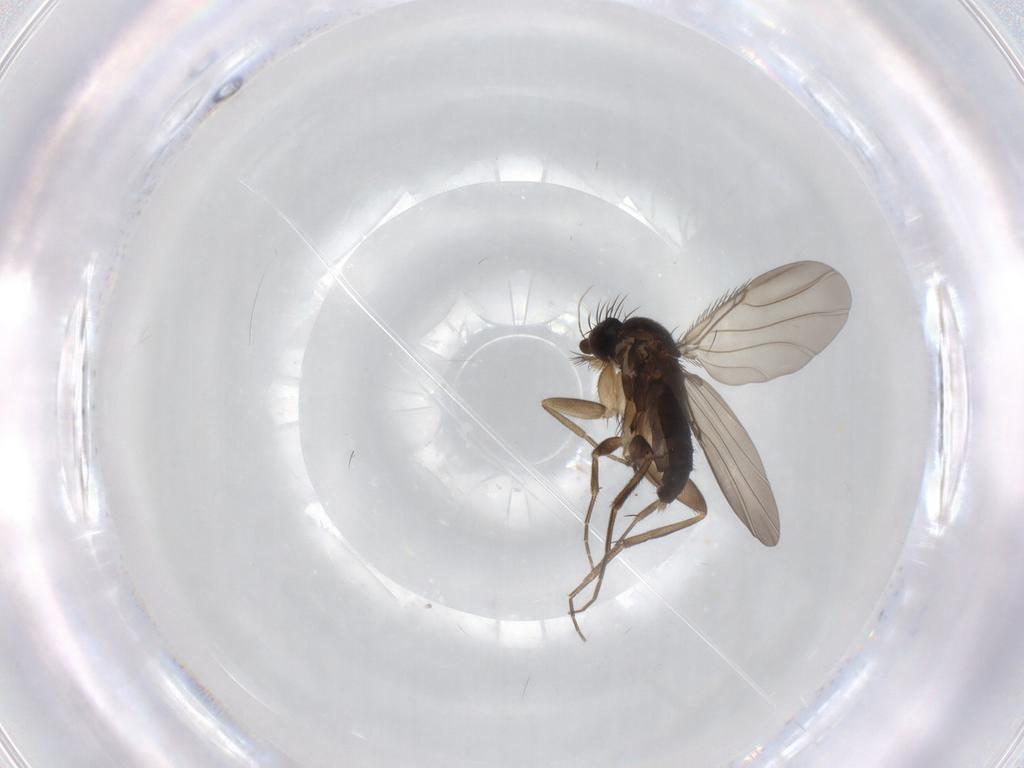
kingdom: Animalia
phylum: Arthropoda
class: Insecta
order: Diptera
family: Phoridae
